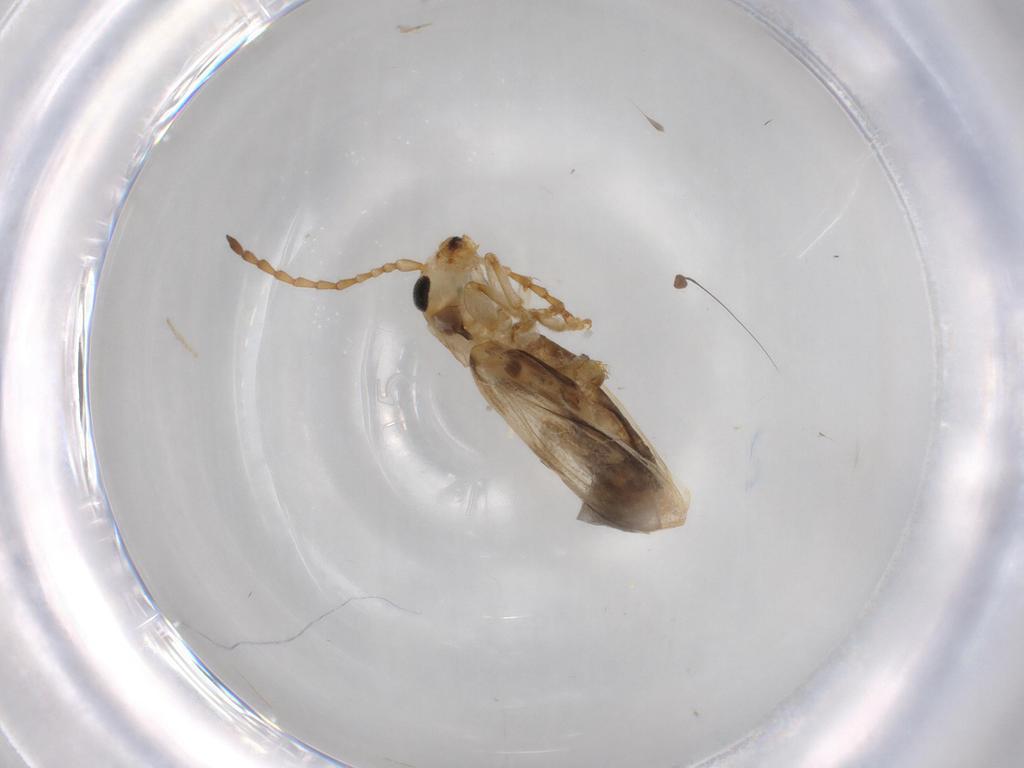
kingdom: Animalia
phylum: Arthropoda
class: Insecta
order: Coleoptera
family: Chrysomelidae
